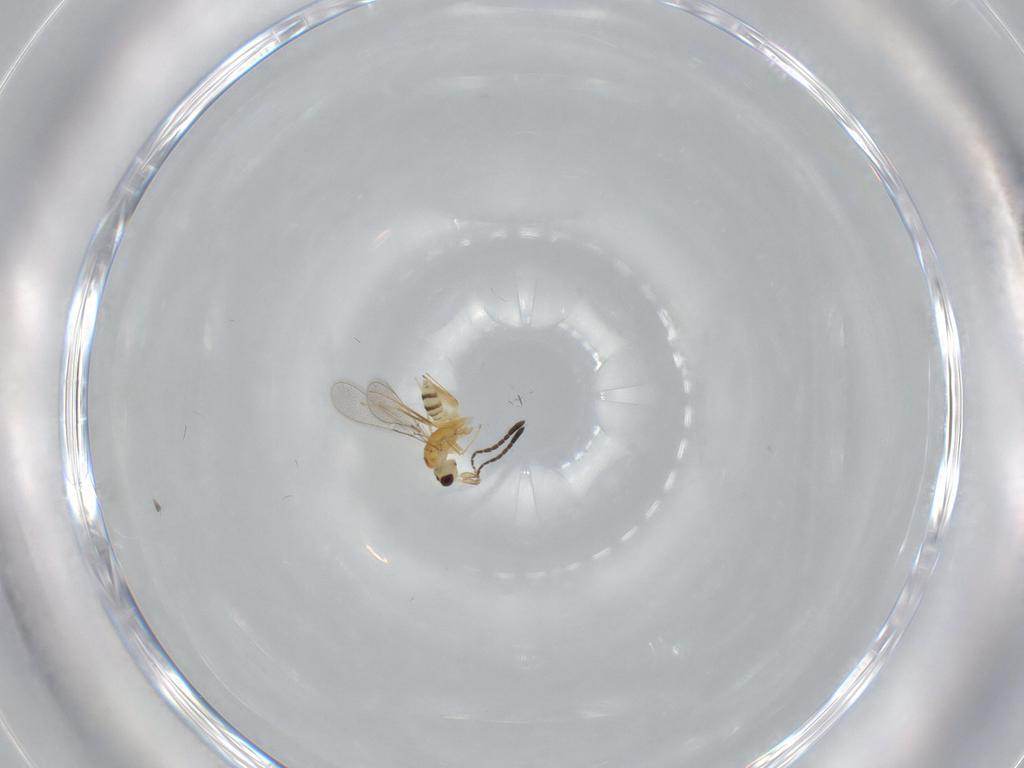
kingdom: Animalia
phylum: Arthropoda
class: Insecta
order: Hymenoptera
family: Mymaridae
